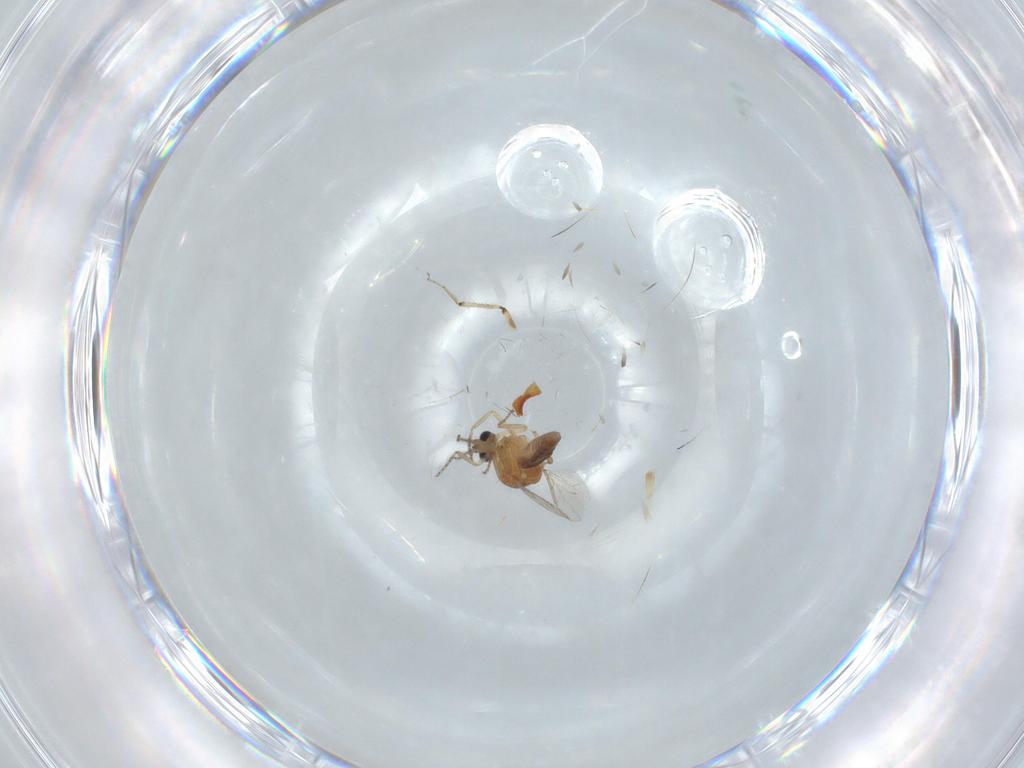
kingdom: Animalia
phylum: Arthropoda
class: Insecta
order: Diptera
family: Ceratopogonidae
